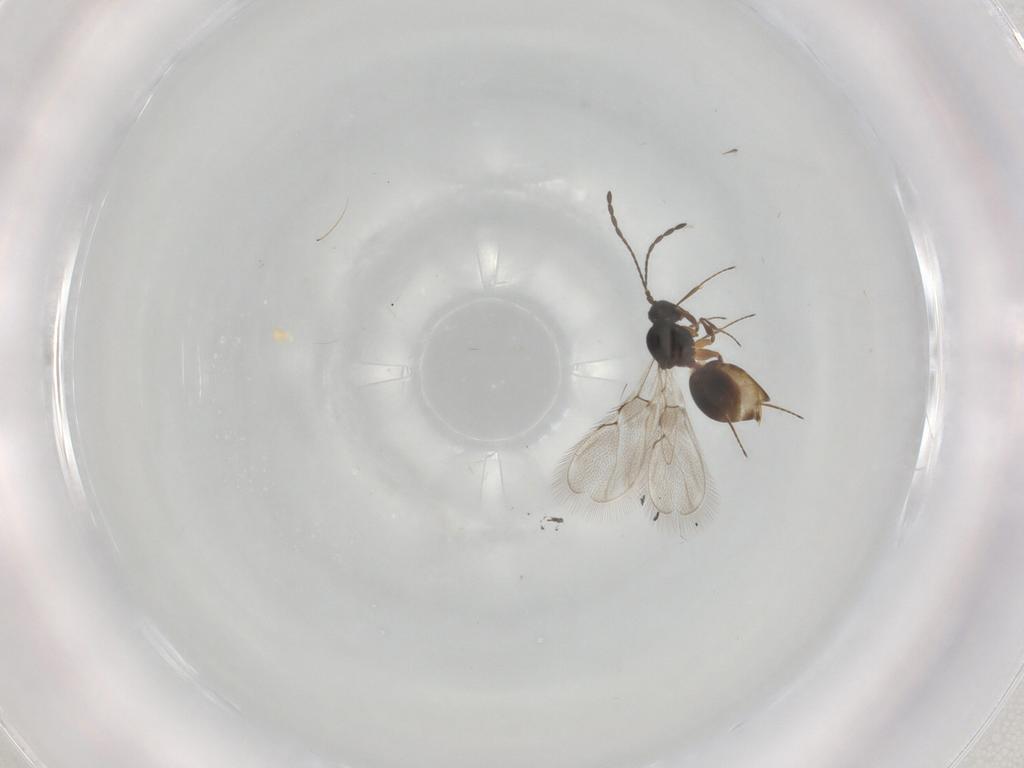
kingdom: Animalia
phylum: Arthropoda
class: Insecta
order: Hymenoptera
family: Figitidae
